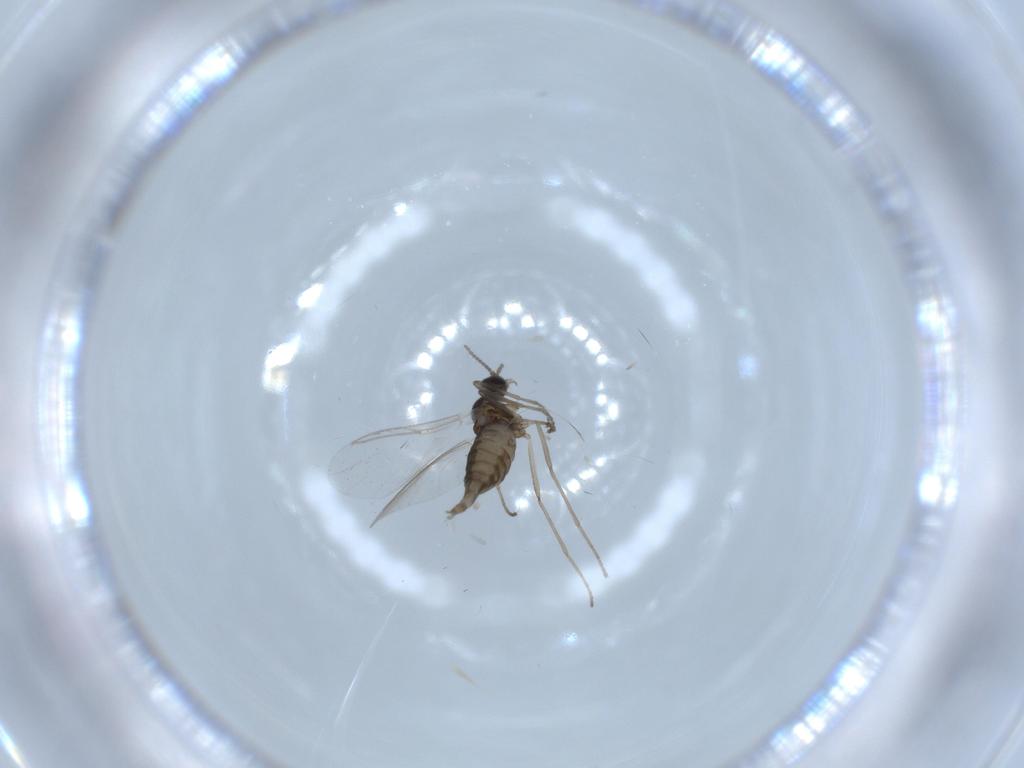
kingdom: Animalia
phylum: Arthropoda
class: Insecta
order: Diptera
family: Cecidomyiidae
